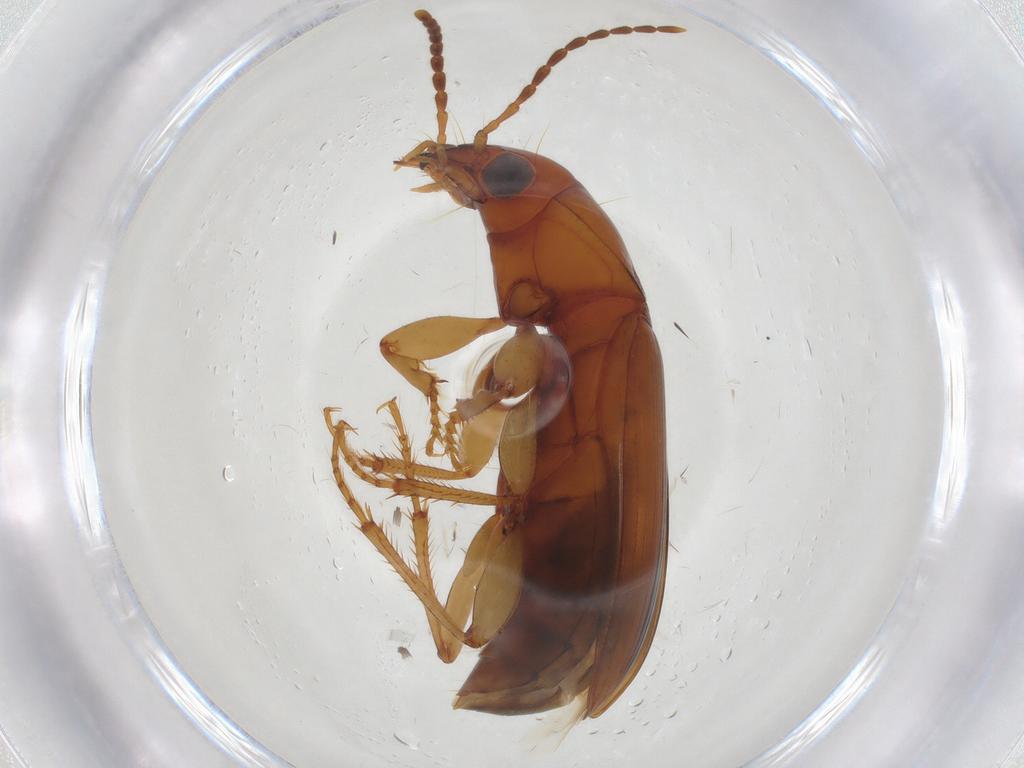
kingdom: Animalia
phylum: Arthropoda
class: Insecta
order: Coleoptera
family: Carabidae
